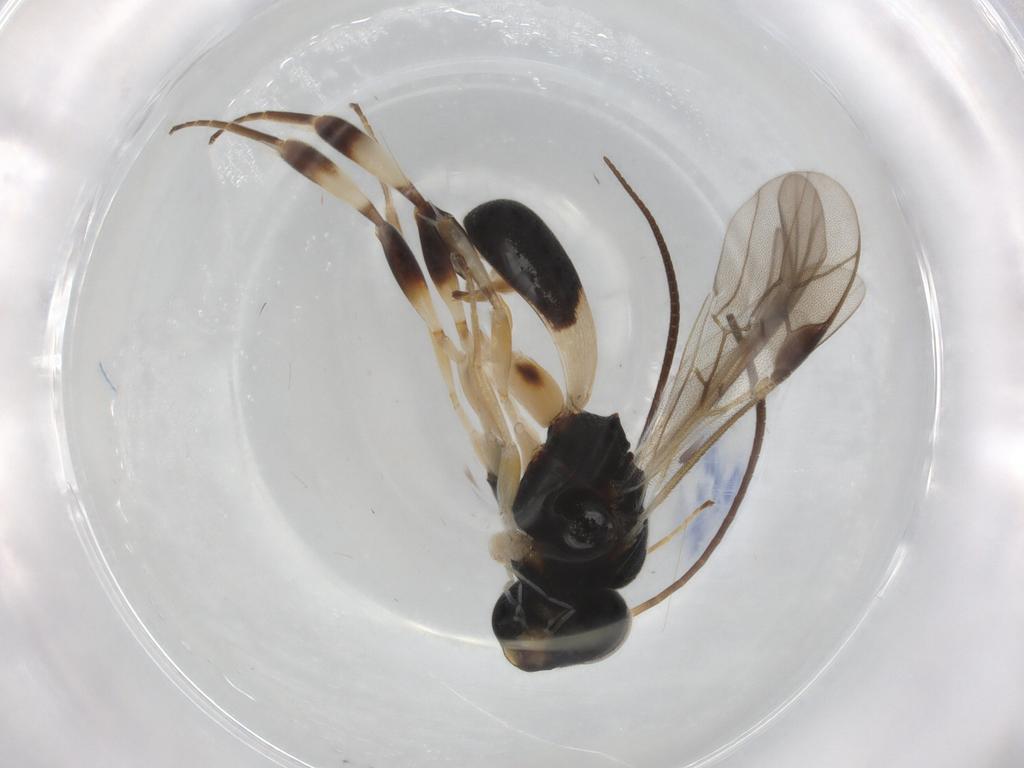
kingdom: Animalia
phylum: Arthropoda
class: Insecta
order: Hymenoptera
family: Braconidae
